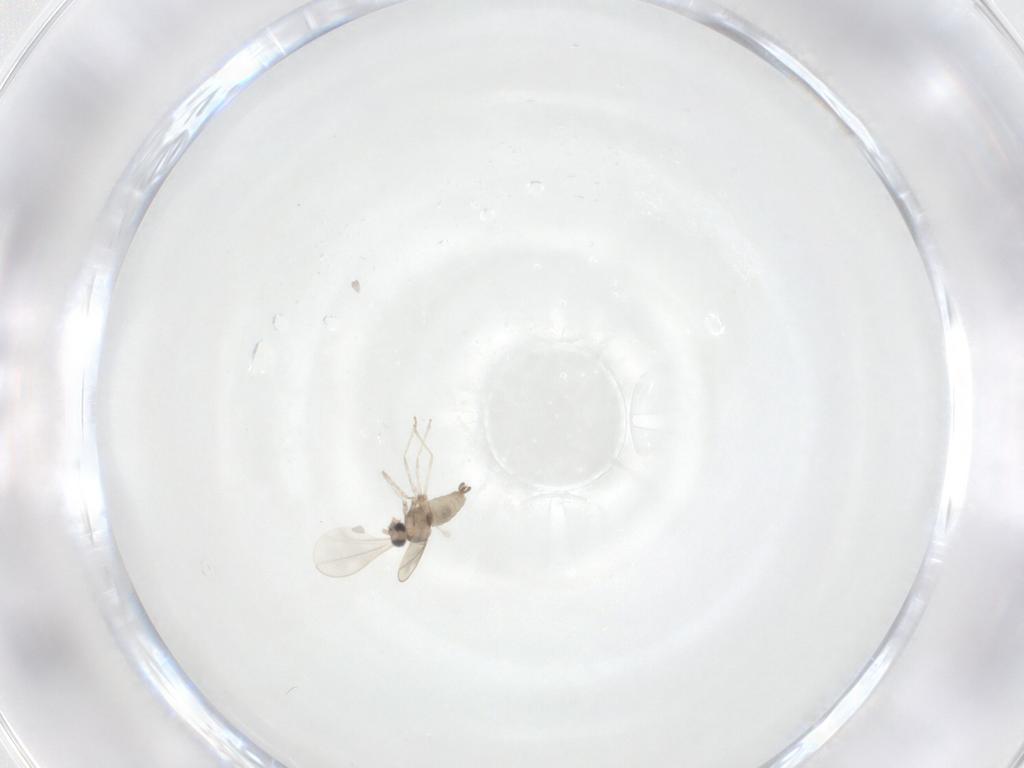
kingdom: Animalia
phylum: Arthropoda
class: Insecta
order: Diptera
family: Cecidomyiidae
